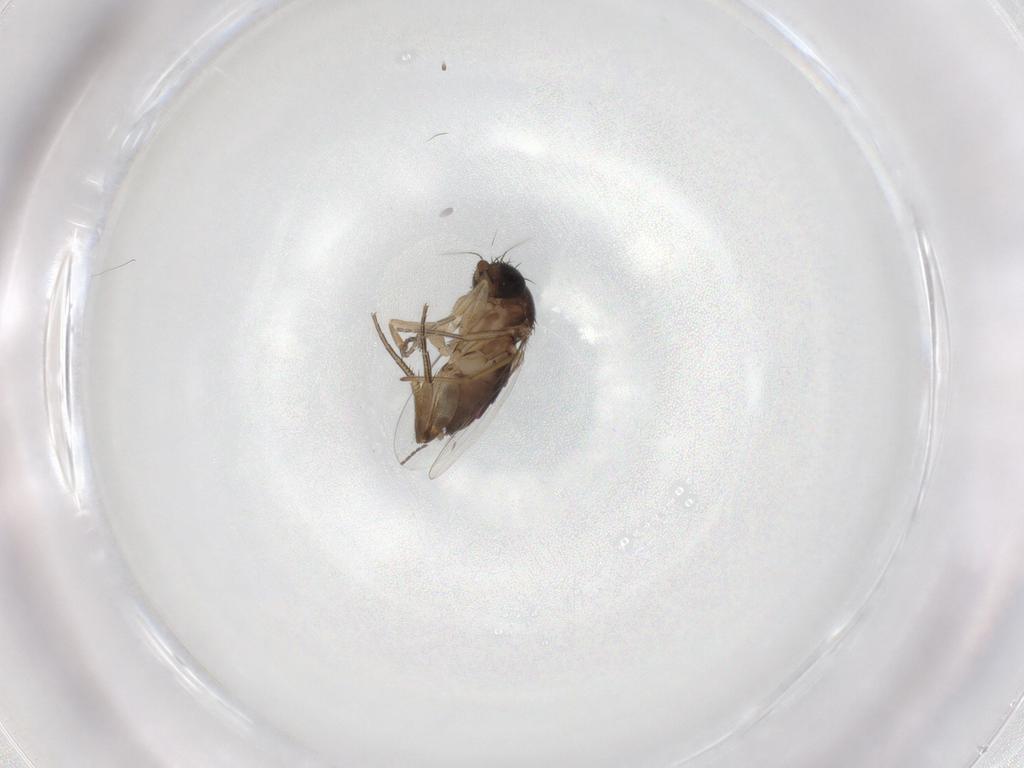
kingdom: Animalia
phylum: Arthropoda
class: Insecta
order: Diptera
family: Phoridae
